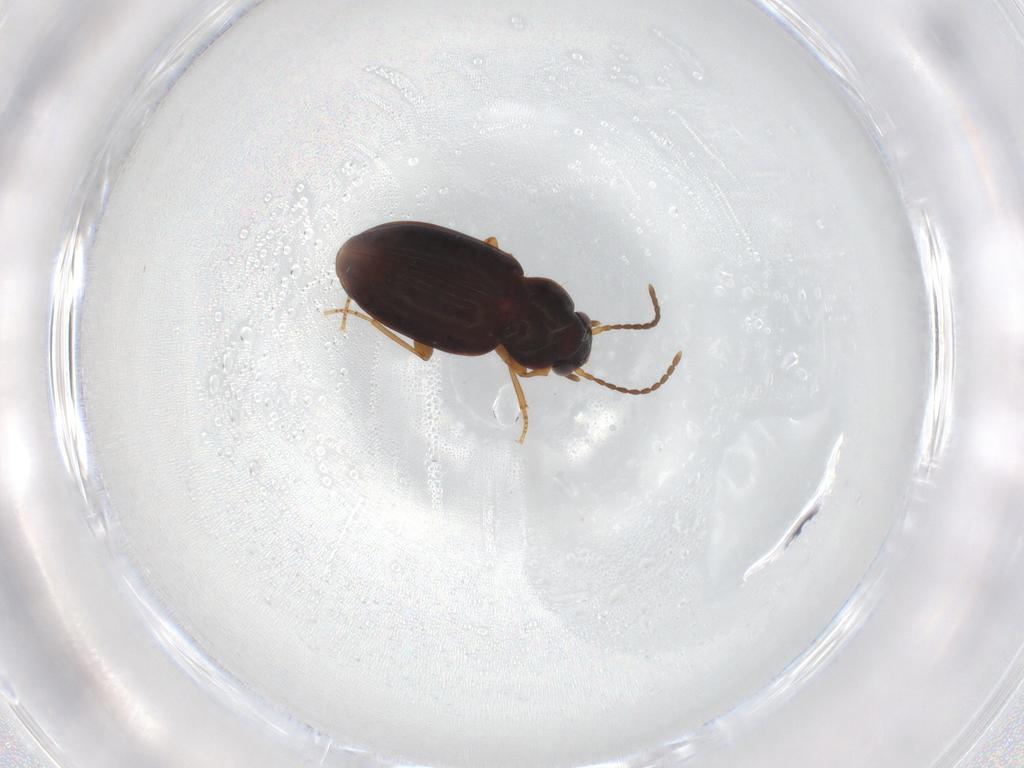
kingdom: Animalia
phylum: Arthropoda
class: Insecta
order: Coleoptera
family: Carabidae
